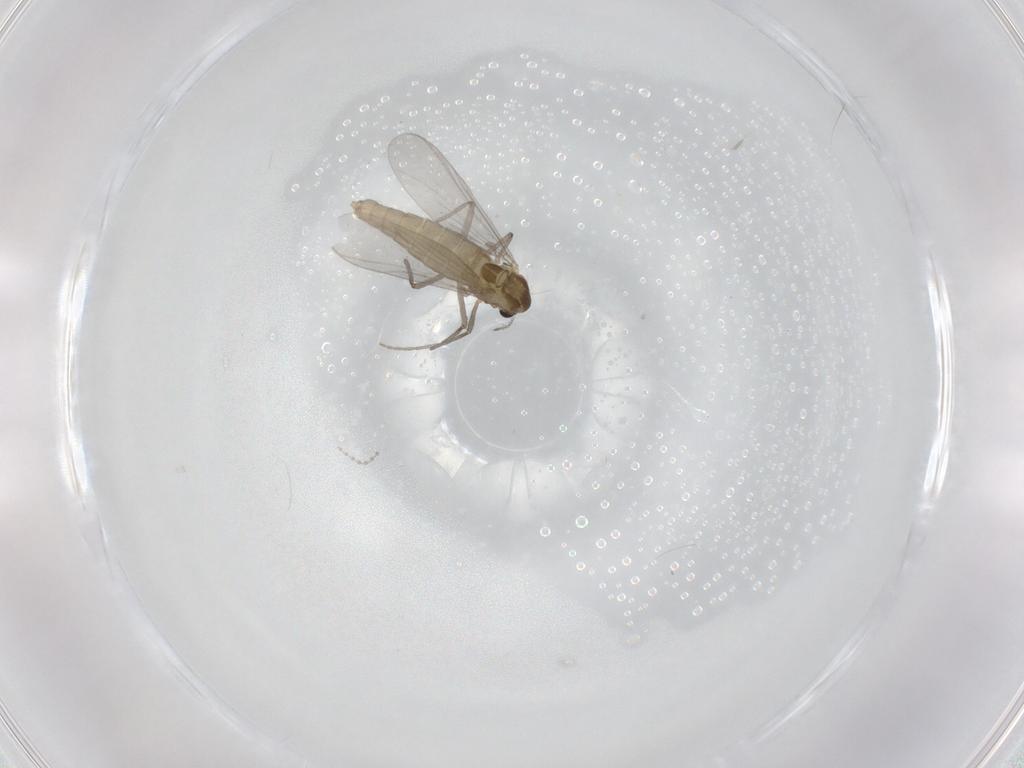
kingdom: Animalia
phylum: Arthropoda
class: Insecta
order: Diptera
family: Chironomidae
